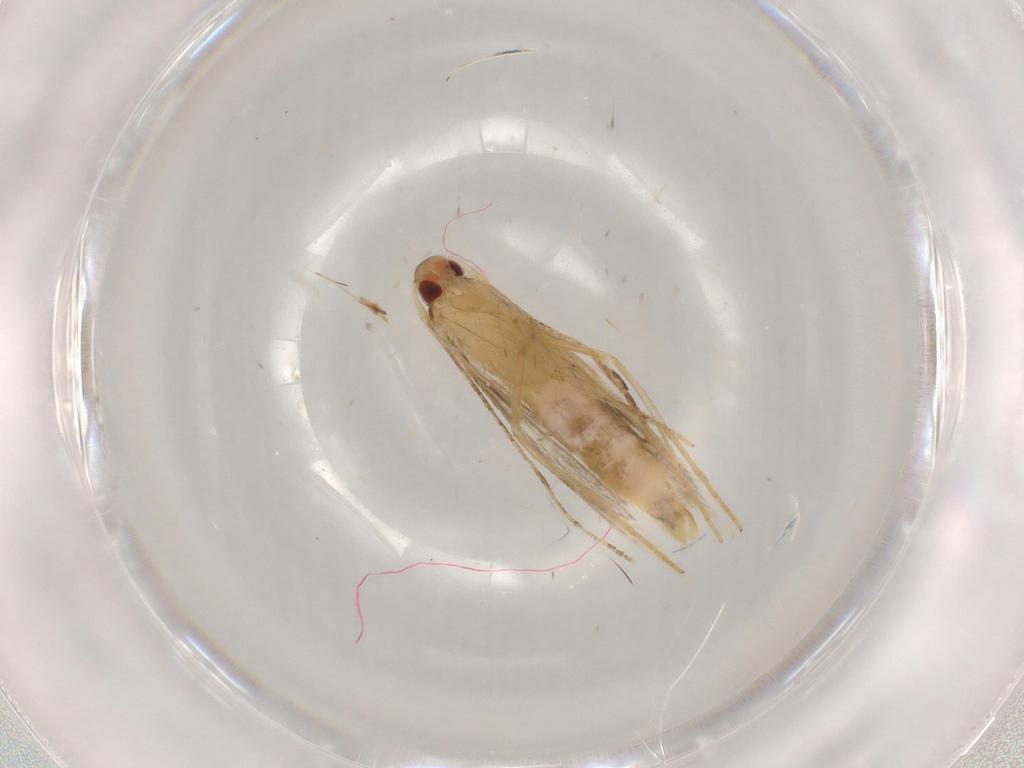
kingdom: Animalia
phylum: Arthropoda
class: Insecta
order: Lepidoptera
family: Cosmopterigidae
